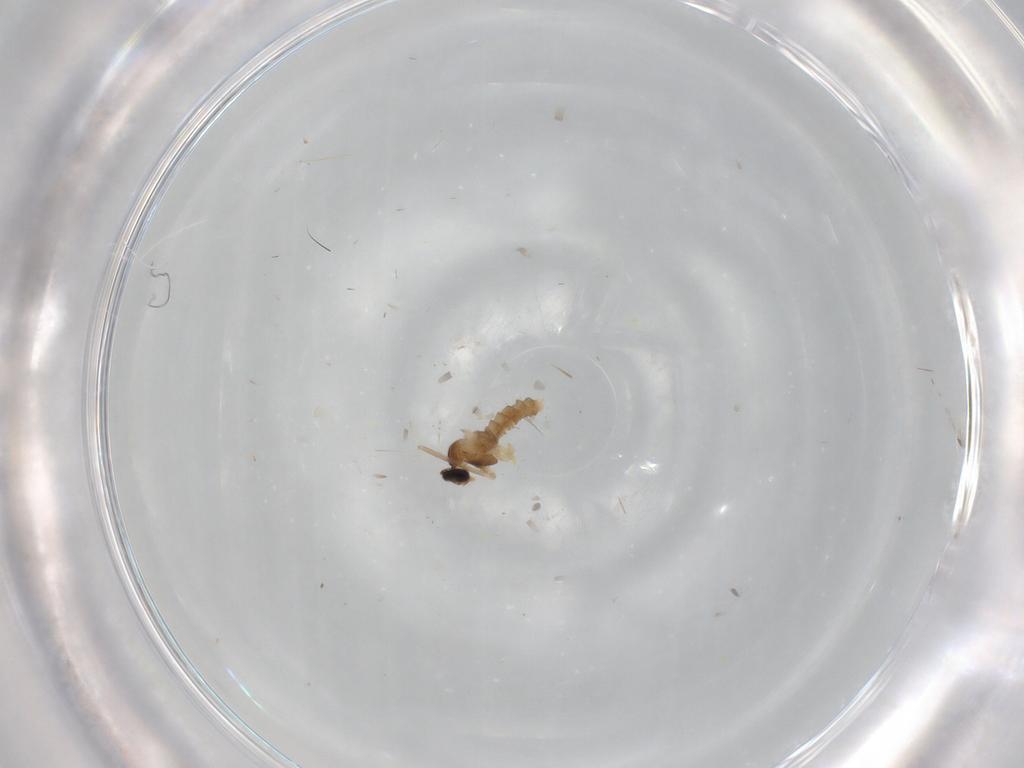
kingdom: Animalia
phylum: Arthropoda
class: Insecta
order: Diptera
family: Cecidomyiidae
